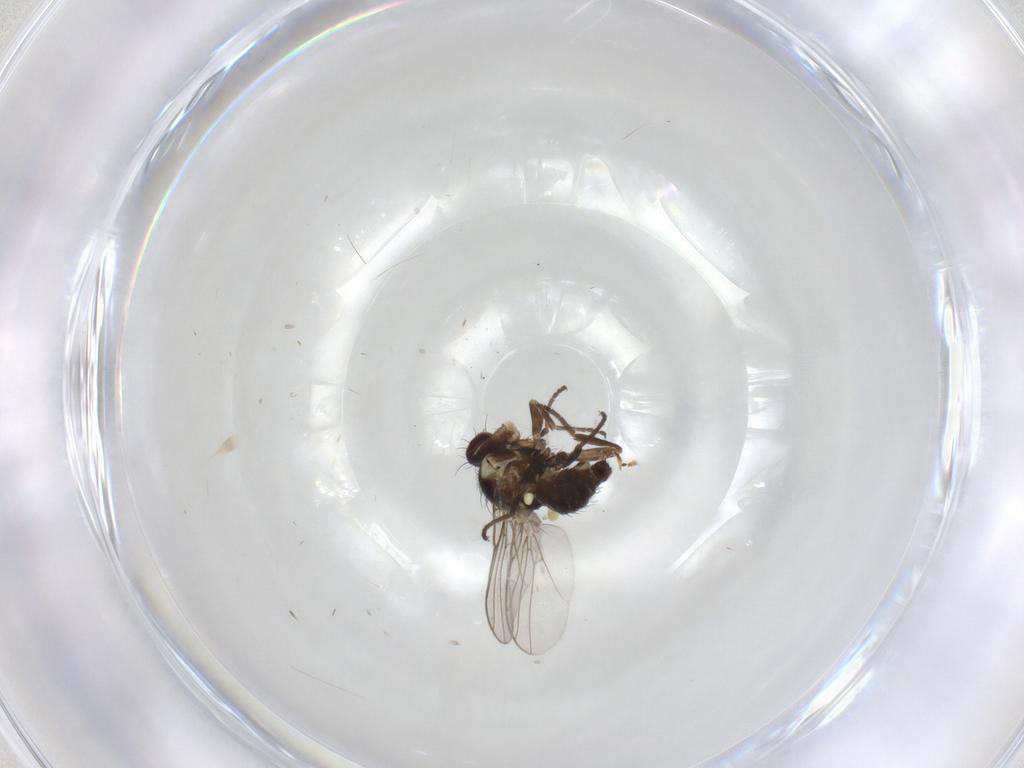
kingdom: Animalia
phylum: Arthropoda
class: Insecta
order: Diptera
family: Agromyzidae
